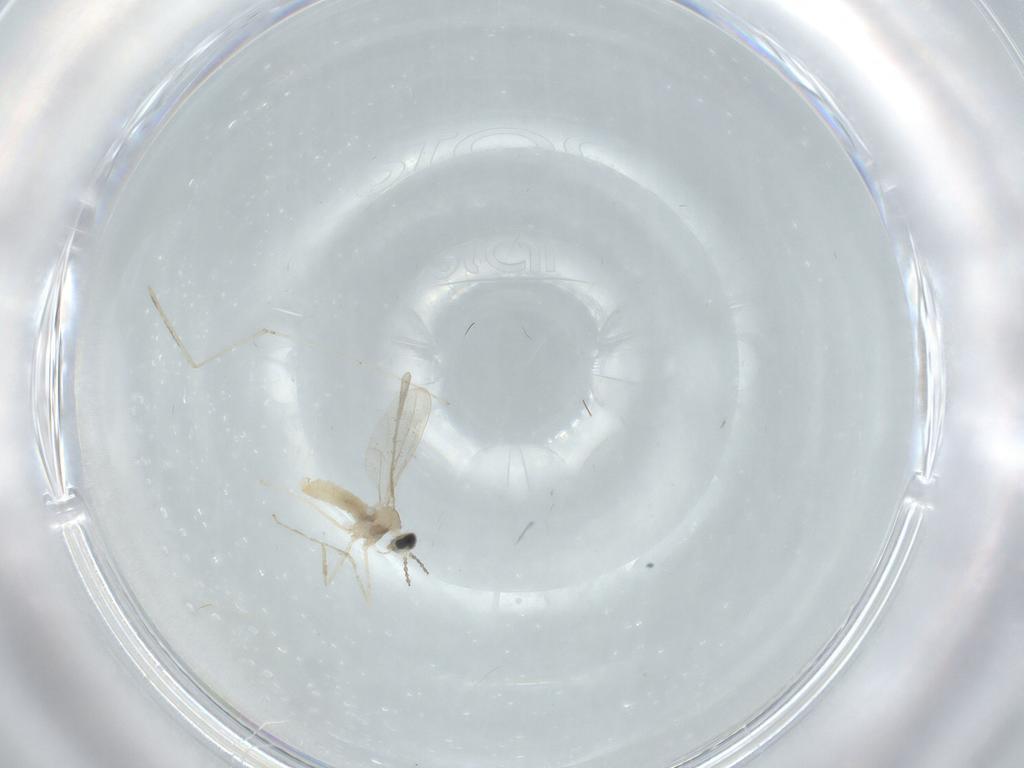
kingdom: Animalia
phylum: Arthropoda
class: Insecta
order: Diptera
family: Cecidomyiidae
